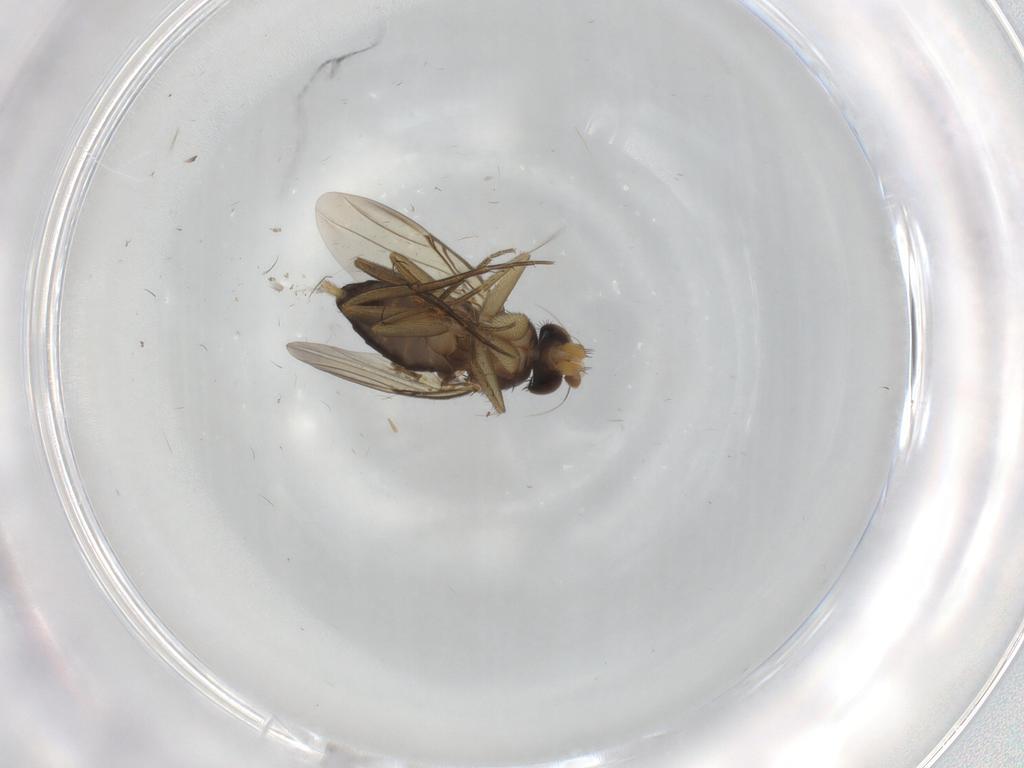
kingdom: Animalia
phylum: Arthropoda
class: Insecta
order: Diptera
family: Phoridae
